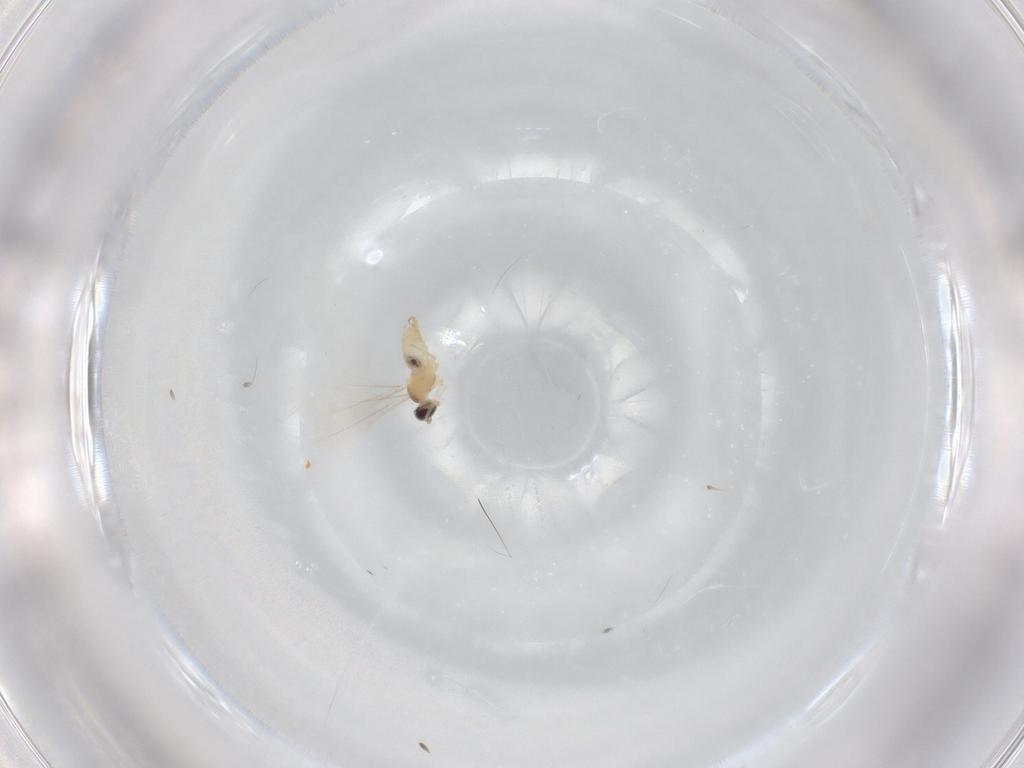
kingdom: Animalia
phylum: Arthropoda
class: Insecta
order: Diptera
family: Cecidomyiidae
